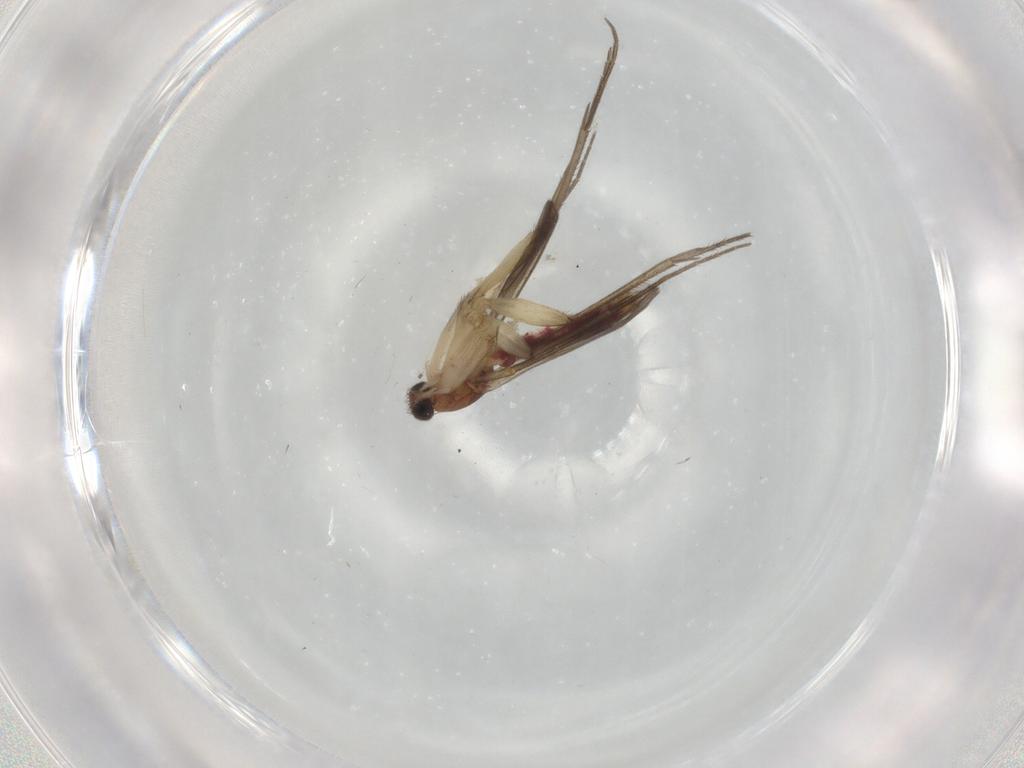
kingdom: Animalia
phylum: Arthropoda
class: Insecta
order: Diptera
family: Mycetophilidae
